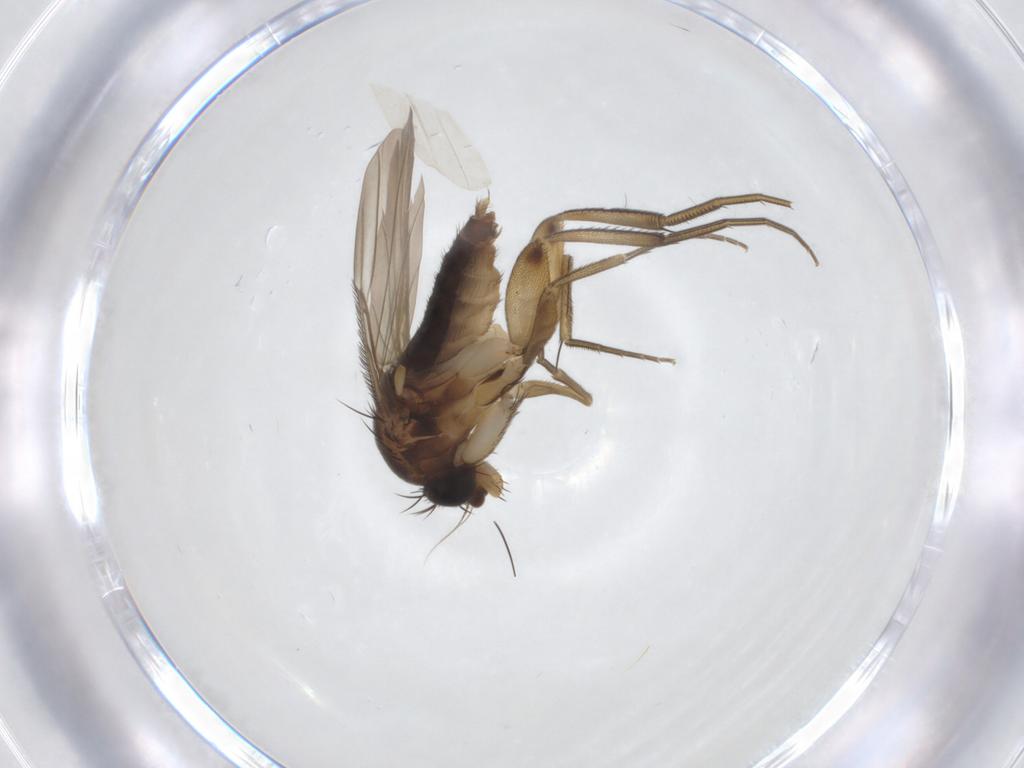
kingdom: Animalia
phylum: Arthropoda
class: Insecta
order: Diptera
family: Phoridae
